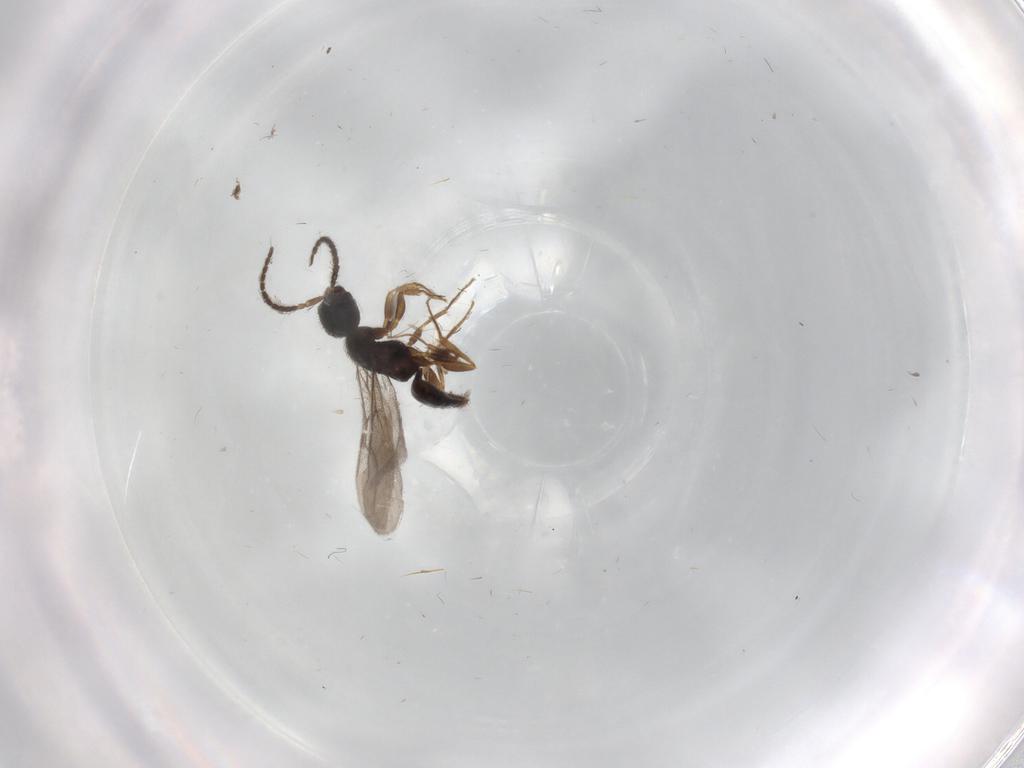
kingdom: Animalia
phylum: Arthropoda
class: Insecta
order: Hymenoptera
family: Bethylidae
